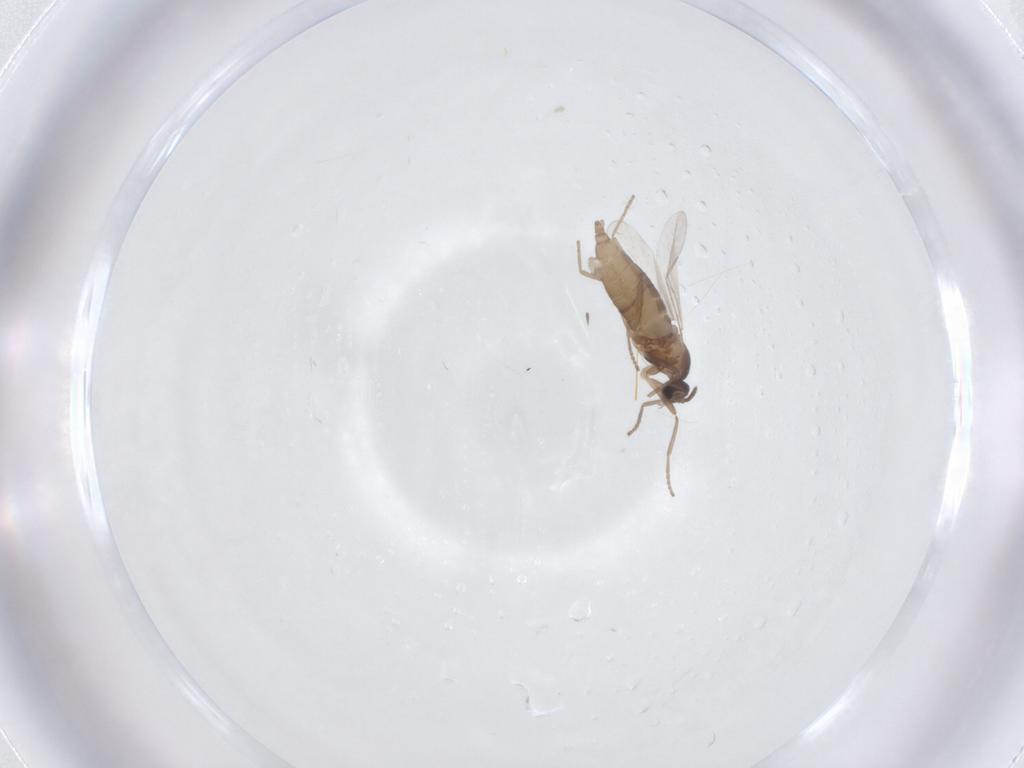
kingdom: Animalia
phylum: Arthropoda
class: Insecta
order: Diptera
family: Cecidomyiidae
